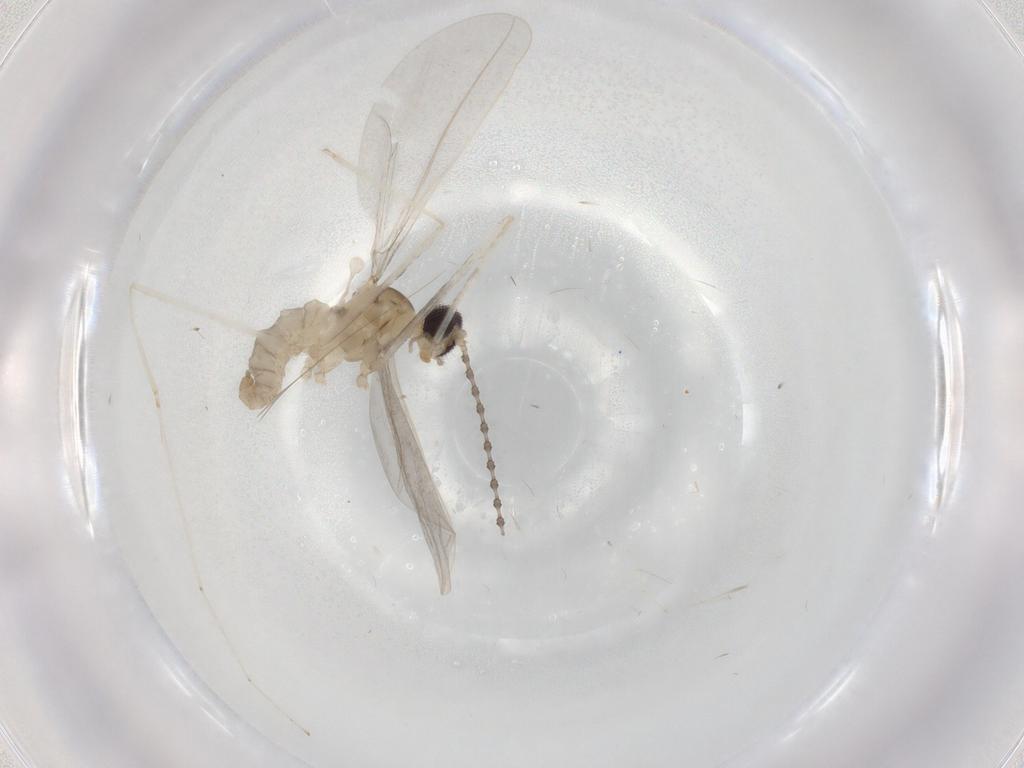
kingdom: Animalia
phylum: Arthropoda
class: Insecta
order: Diptera
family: Cecidomyiidae
